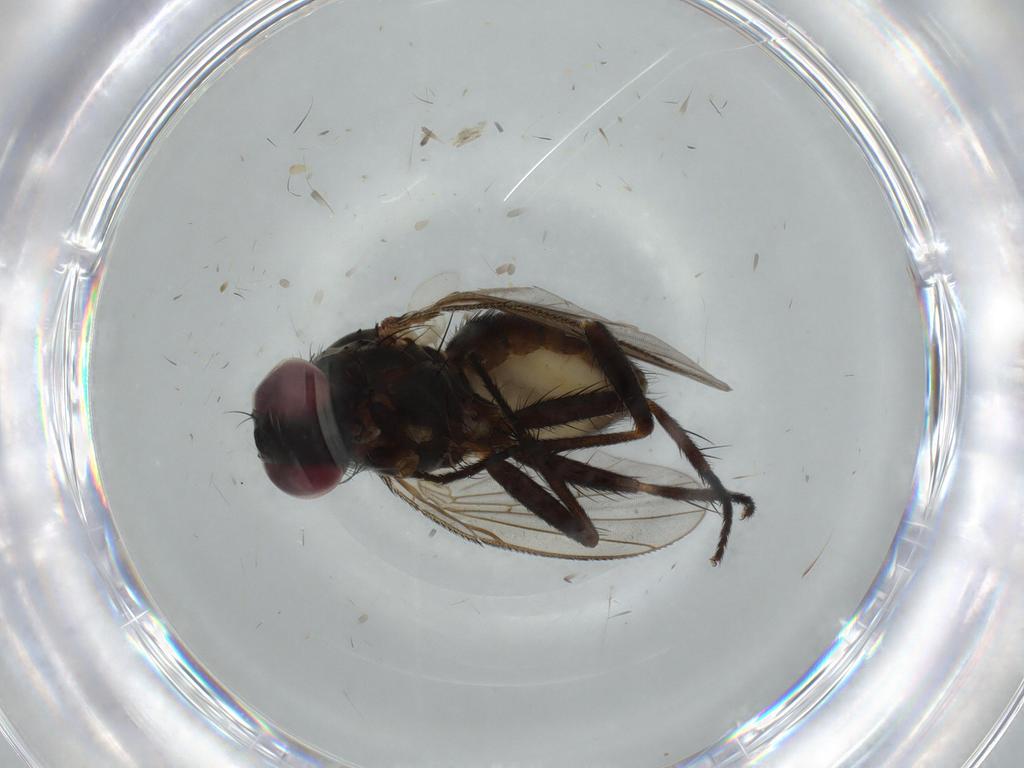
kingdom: Animalia
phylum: Arthropoda
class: Insecta
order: Diptera
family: Muscidae
